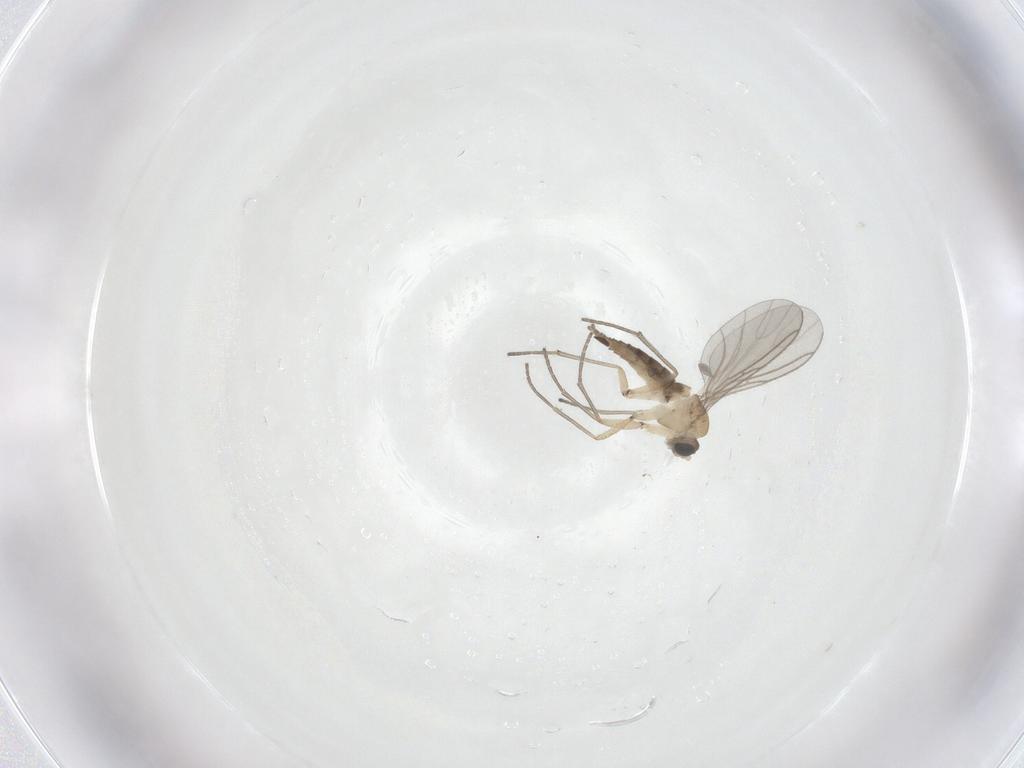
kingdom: Animalia
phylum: Arthropoda
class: Insecta
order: Diptera
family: Sciaridae
